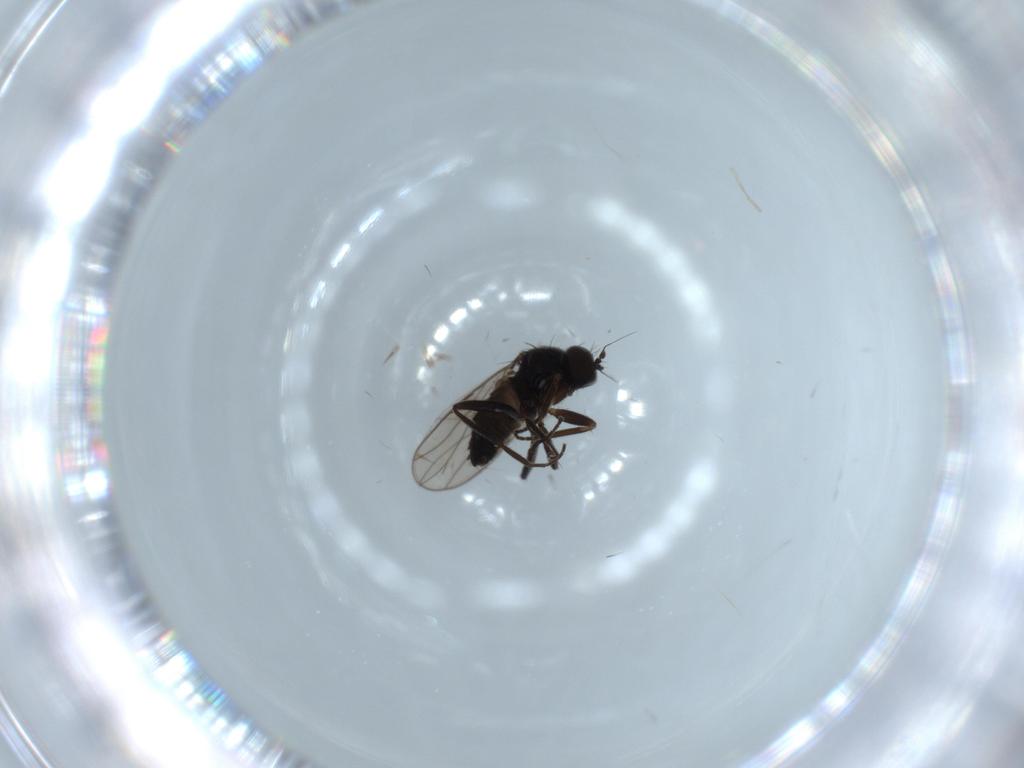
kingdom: Animalia
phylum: Arthropoda
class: Insecta
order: Diptera
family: Hybotidae
